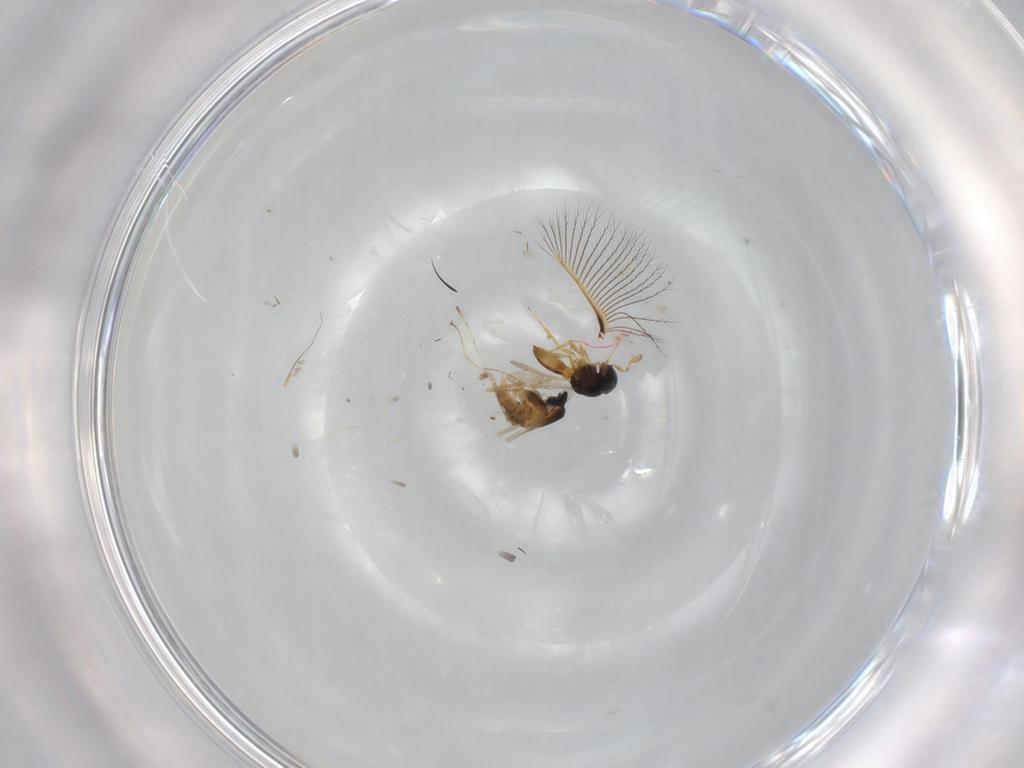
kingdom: Animalia
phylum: Arthropoda
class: Insecta
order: Diptera
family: Cecidomyiidae
